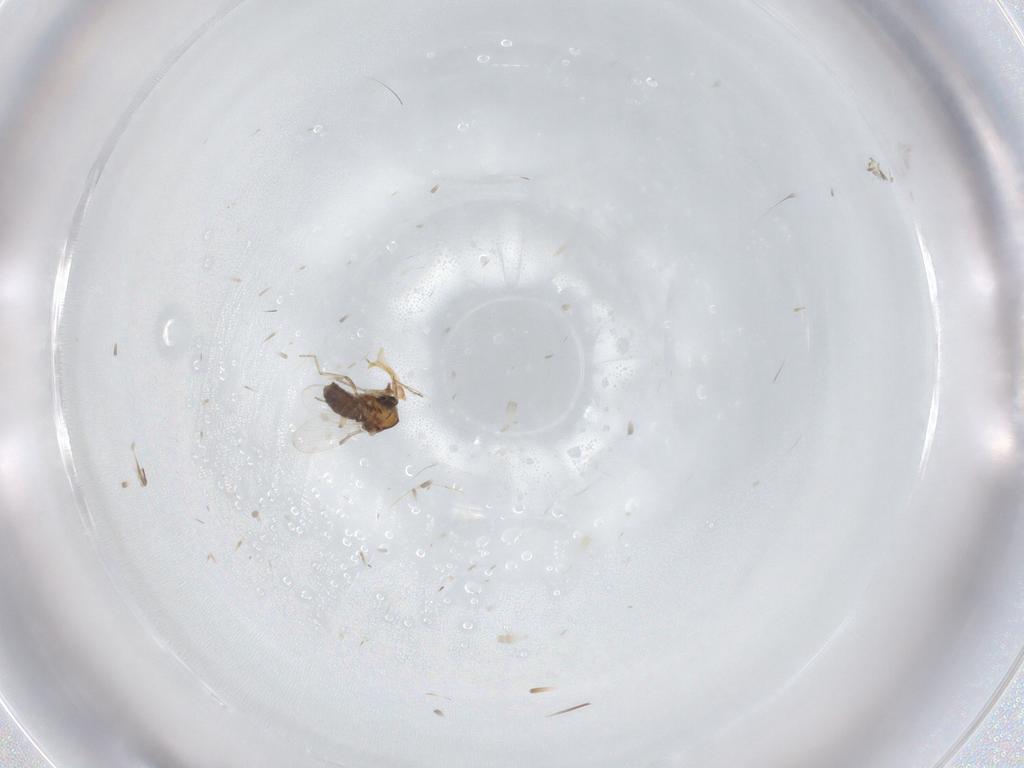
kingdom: Animalia
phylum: Arthropoda
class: Insecta
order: Diptera
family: Ceratopogonidae
